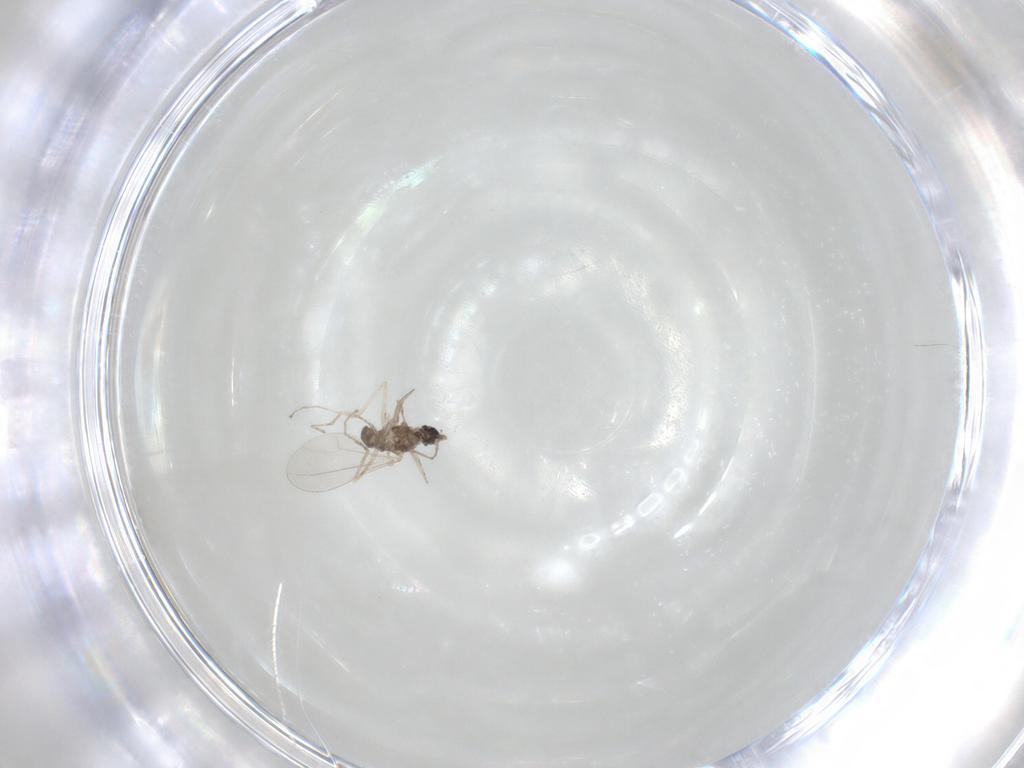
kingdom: Animalia
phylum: Arthropoda
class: Insecta
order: Diptera
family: Cecidomyiidae
